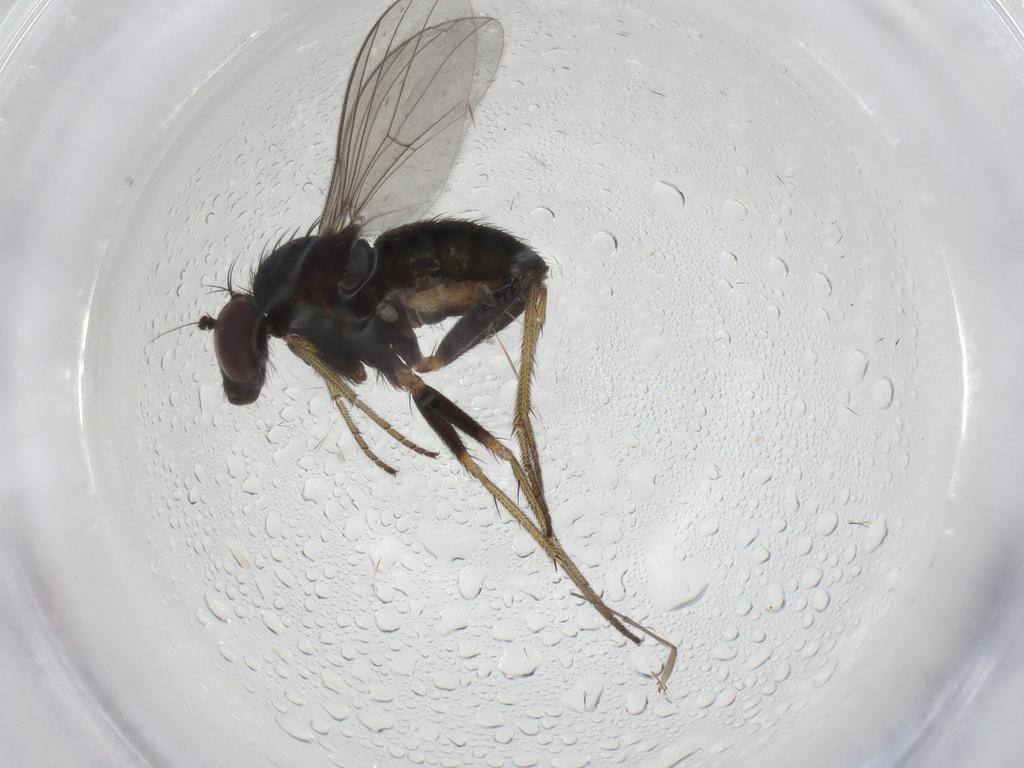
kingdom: Animalia
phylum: Arthropoda
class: Insecta
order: Diptera
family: Cecidomyiidae
